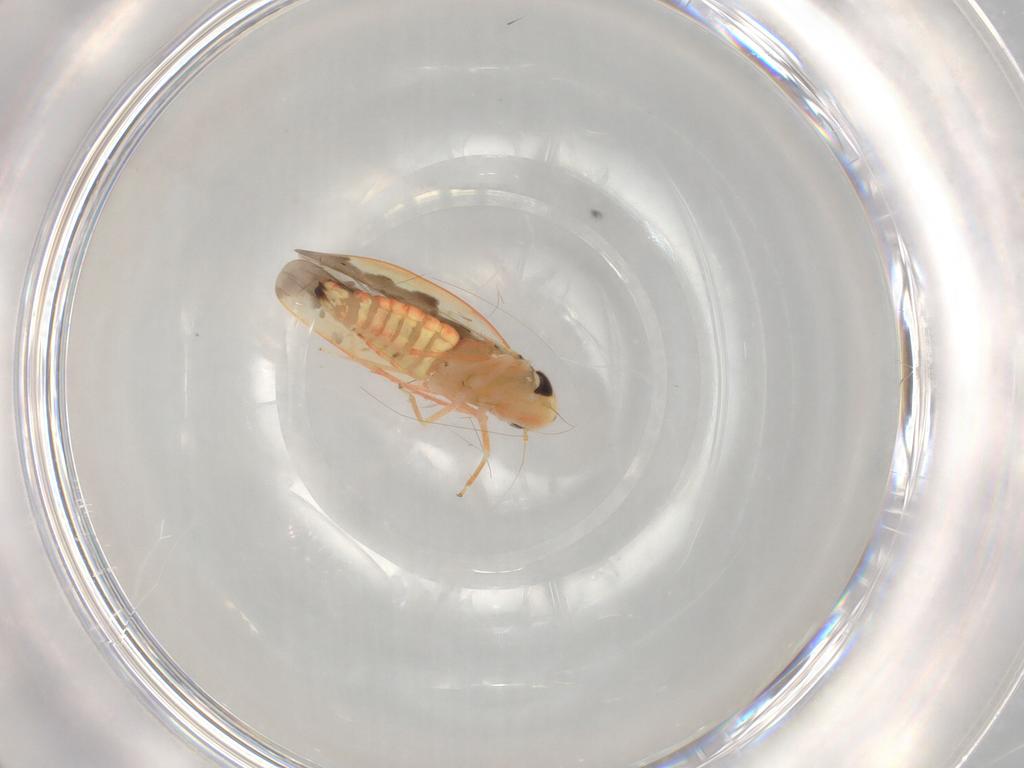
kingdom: Animalia
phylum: Arthropoda
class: Insecta
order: Hemiptera
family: Cicadellidae
